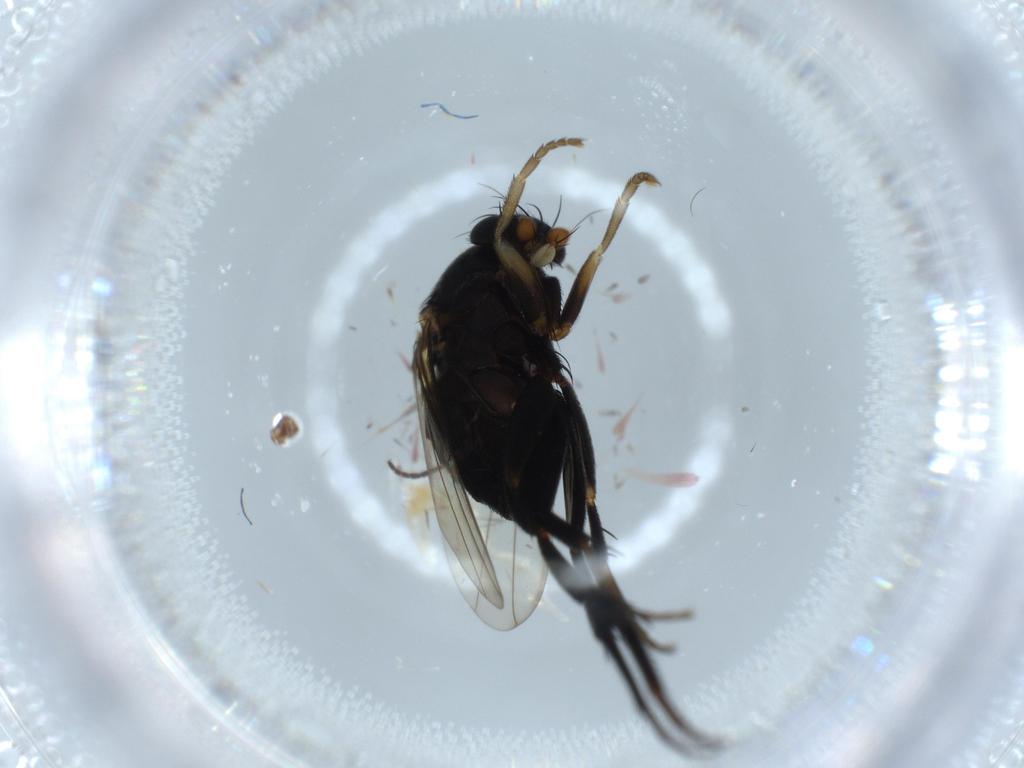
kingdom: Animalia
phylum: Arthropoda
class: Insecta
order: Diptera
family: Phoridae
